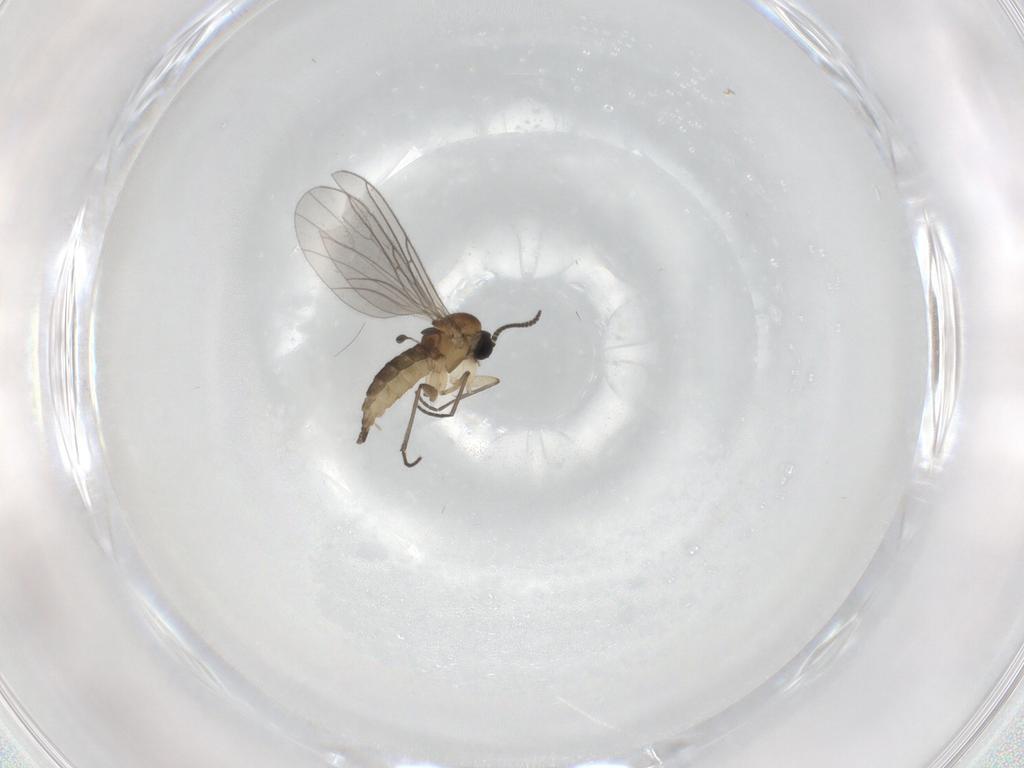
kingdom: Animalia
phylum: Arthropoda
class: Insecta
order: Diptera
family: Sciaridae
